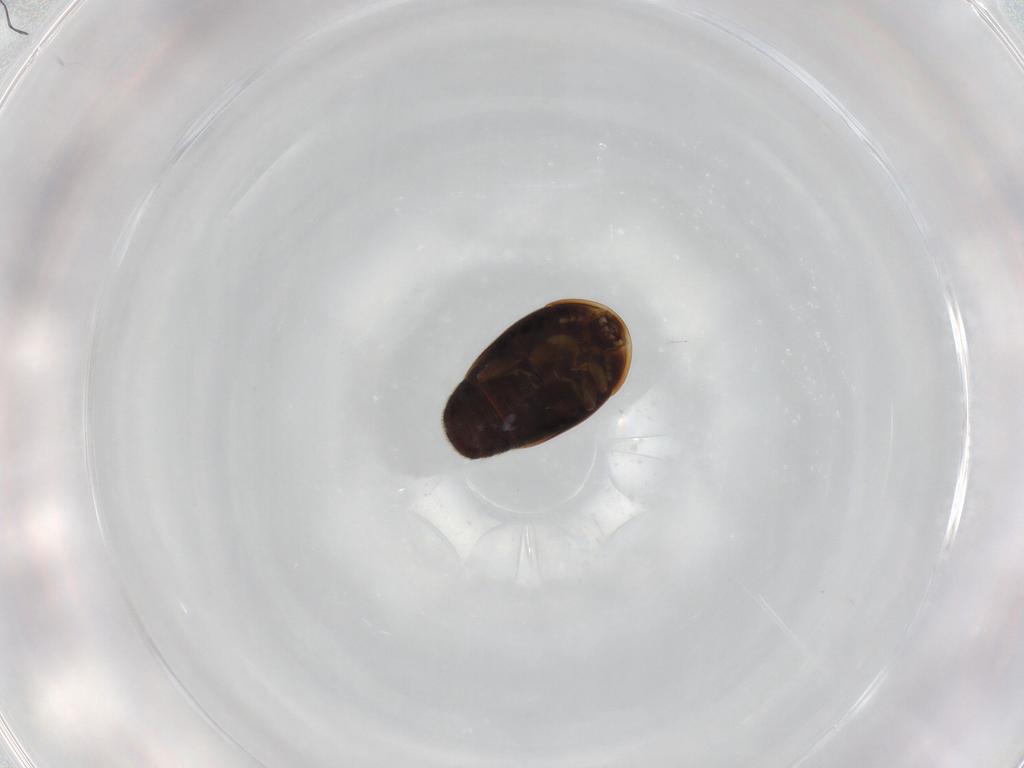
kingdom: Animalia
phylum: Arthropoda
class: Insecta
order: Coleoptera
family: Corylophidae
